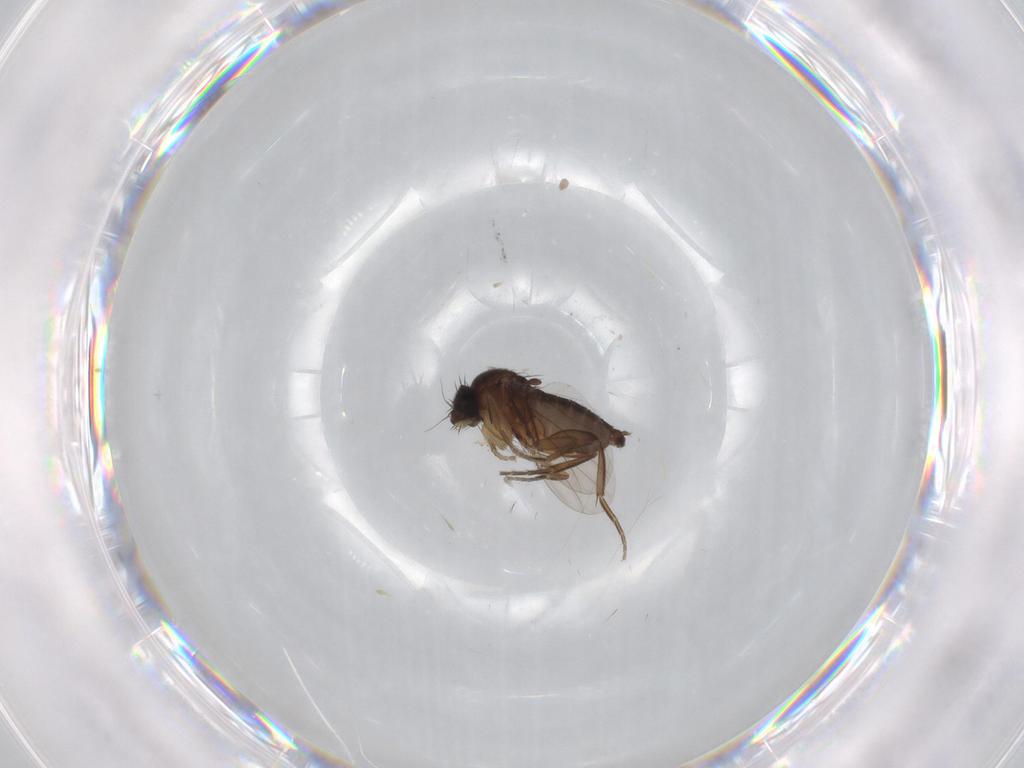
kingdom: Animalia
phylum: Arthropoda
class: Insecta
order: Diptera
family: Phoridae
